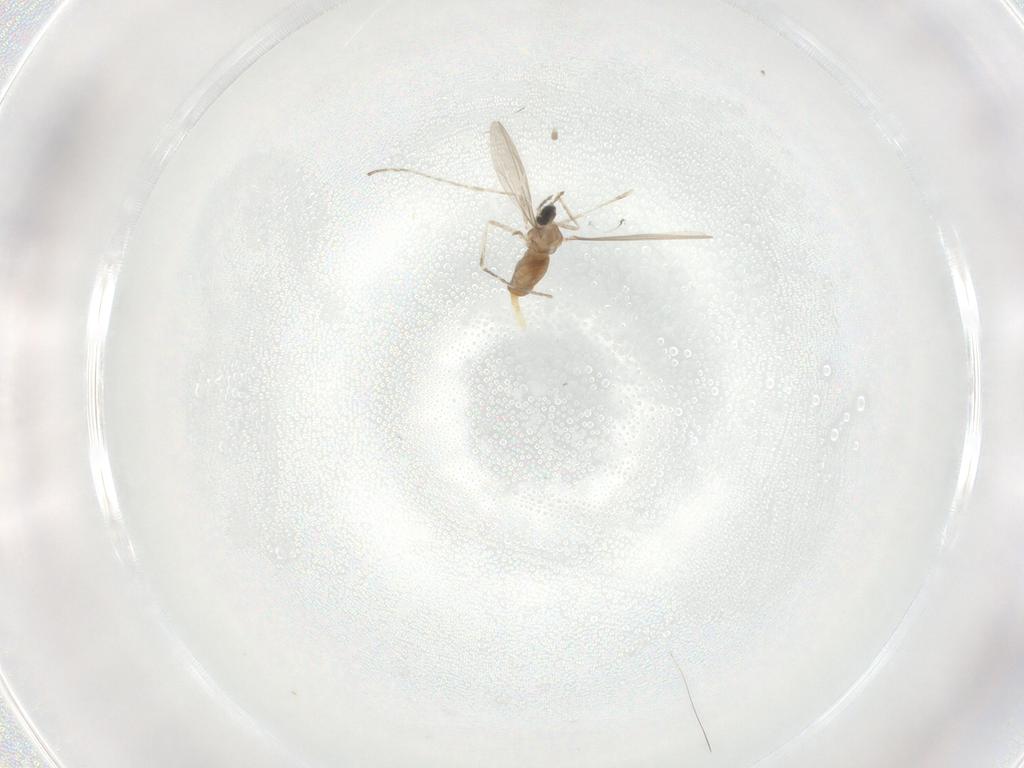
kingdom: Animalia
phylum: Arthropoda
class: Insecta
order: Diptera
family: Cecidomyiidae
